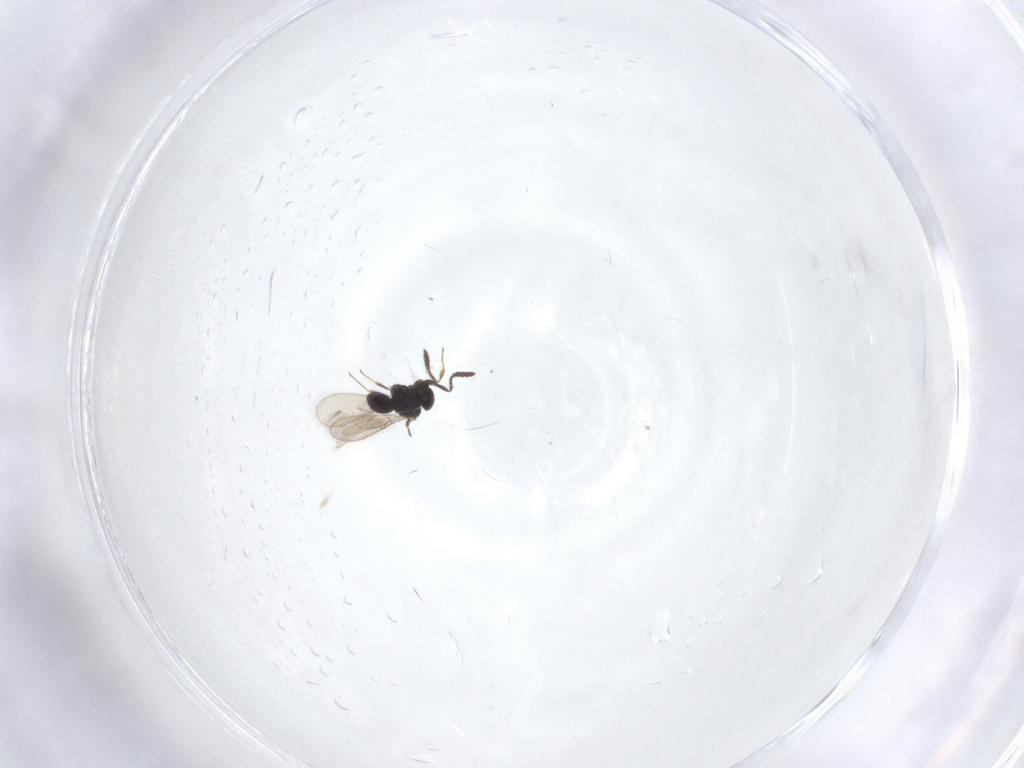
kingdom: Animalia
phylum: Arthropoda
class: Insecta
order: Hymenoptera
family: Scelionidae
